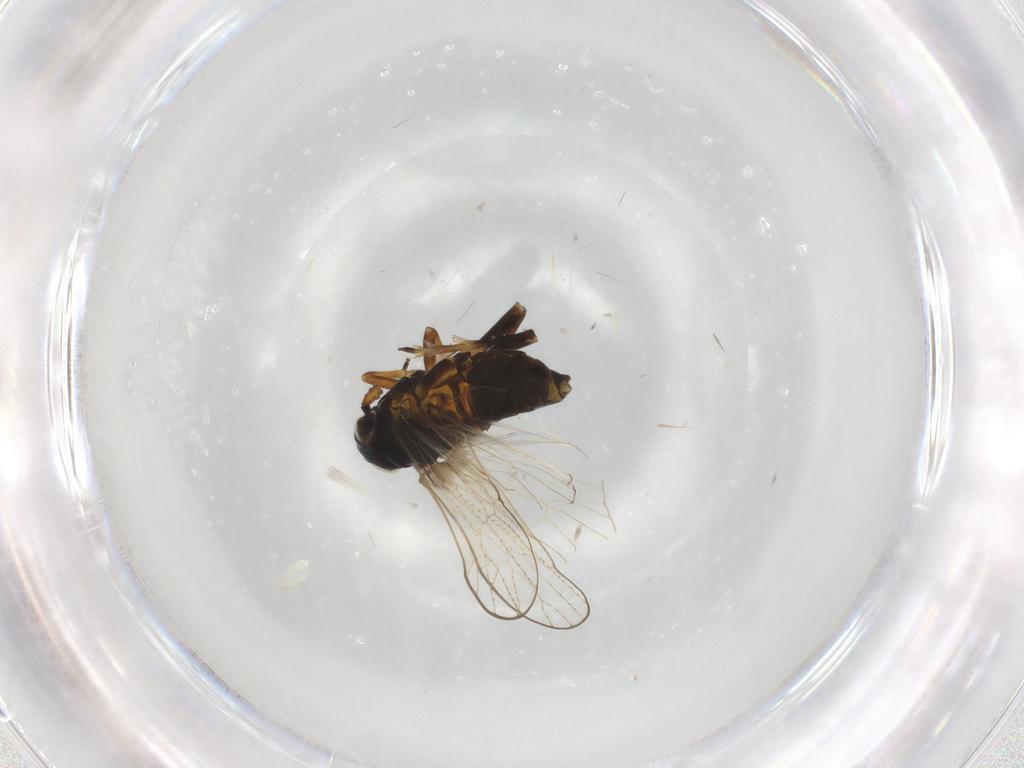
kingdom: Animalia
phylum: Arthropoda
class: Insecta
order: Hemiptera
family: Delphacidae
